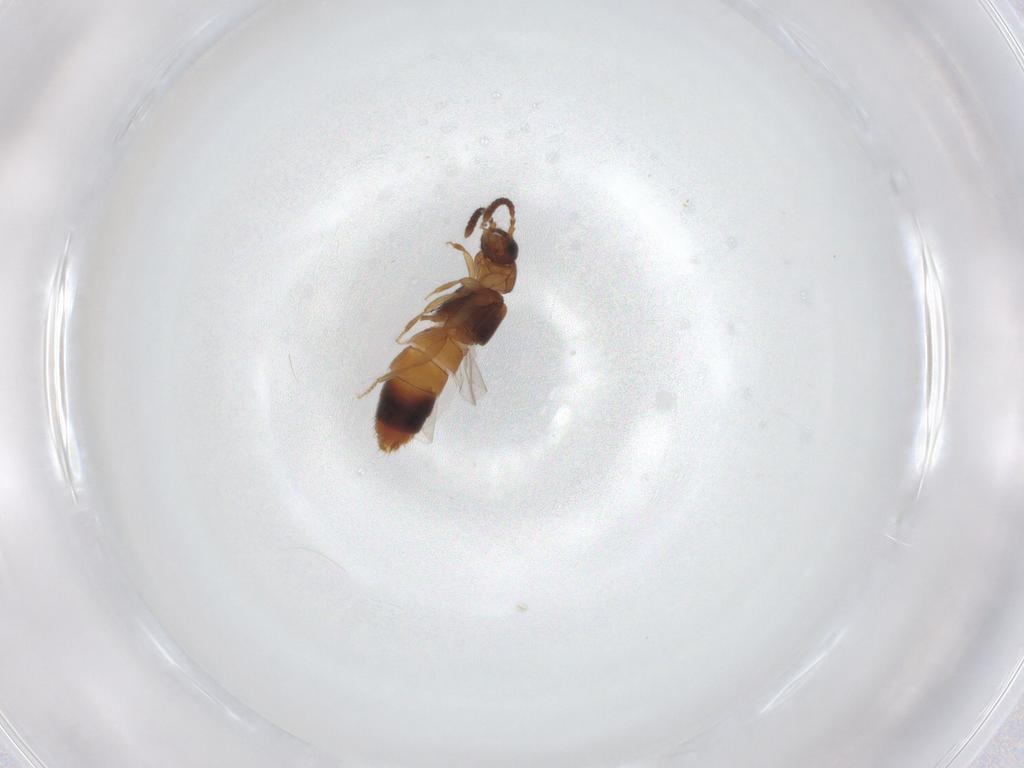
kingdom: Animalia
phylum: Arthropoda
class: Insecta
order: Coleoptera
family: Staphylinidae
